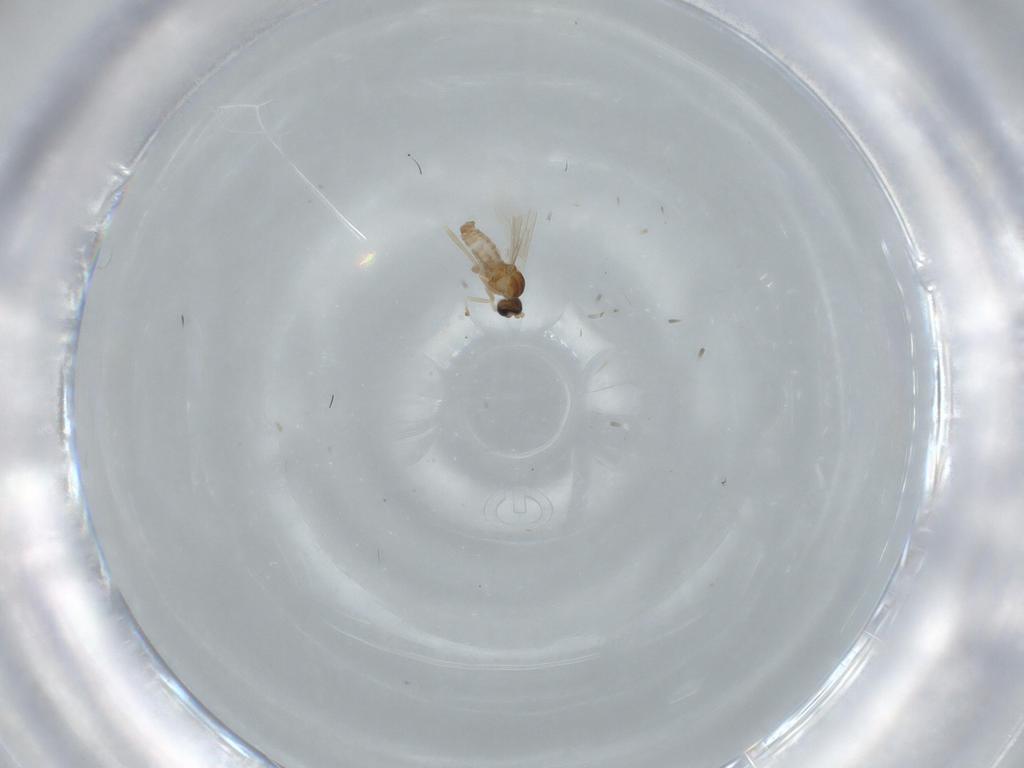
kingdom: Animalia
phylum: Arthropoda
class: Insecta
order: Diptera
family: Cecidomyiidae
